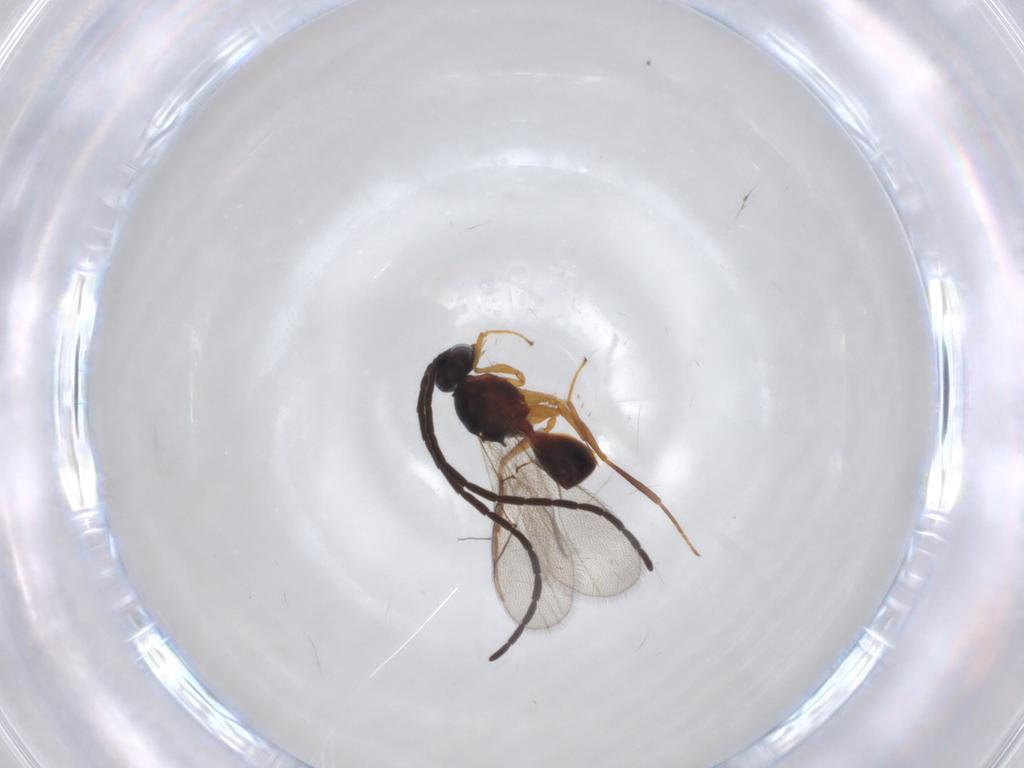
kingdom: Animalia
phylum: Arthropoda
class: Insecta
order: Hymenoptera
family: Figitidae
